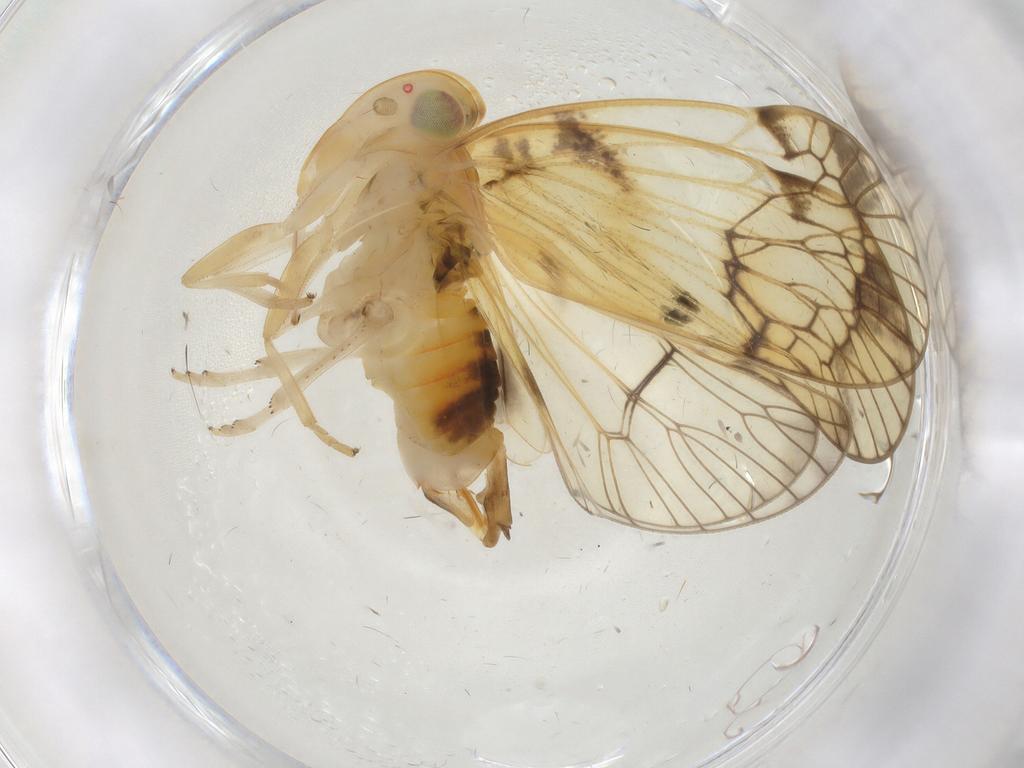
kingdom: Animalia
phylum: Arthropoda
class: Insecta
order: Hemiptera
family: Cixiidae
